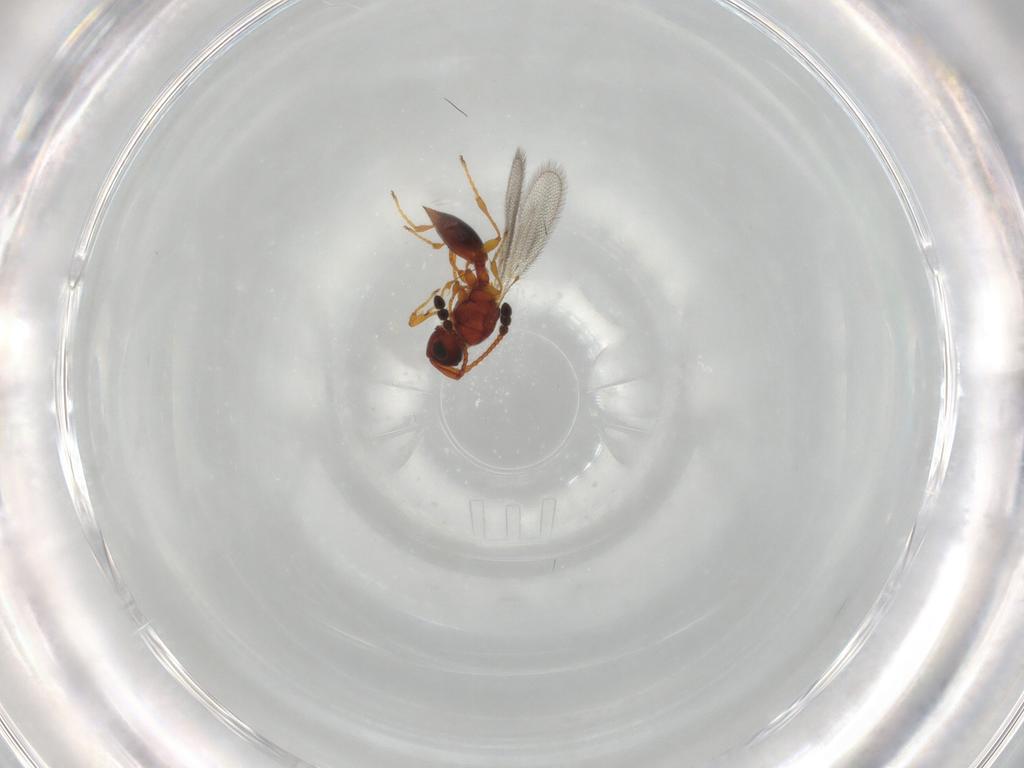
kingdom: Animalia
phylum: Arthropoda
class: Insecta
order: Hymenoptera
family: Diapriidae
